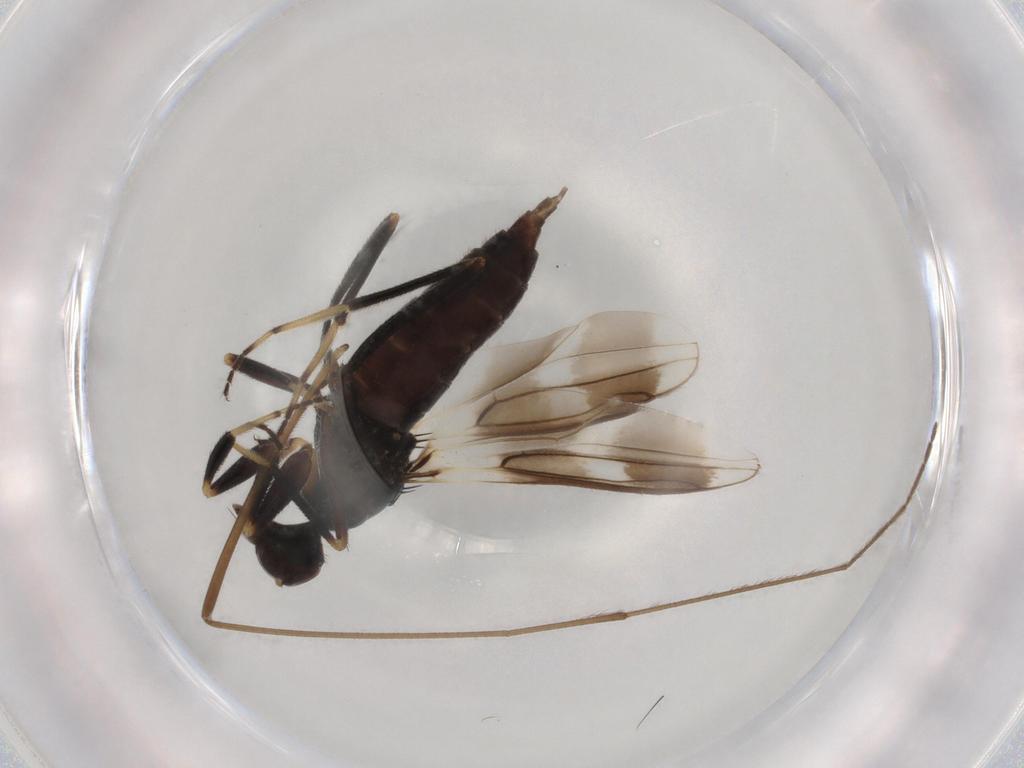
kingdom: Animalia
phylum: Arthropoda
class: Insecta
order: Diptera
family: Hybotidae
